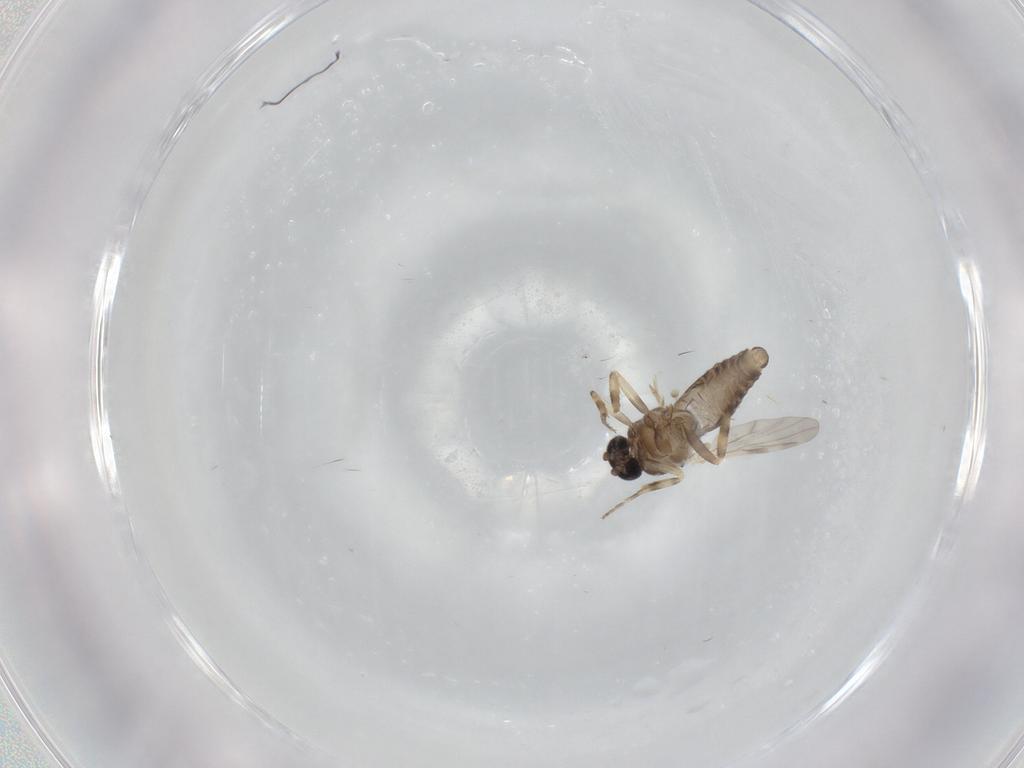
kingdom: Animalia
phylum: Arthropoda
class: Insecta
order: Diptera
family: Ceratopogonidae
